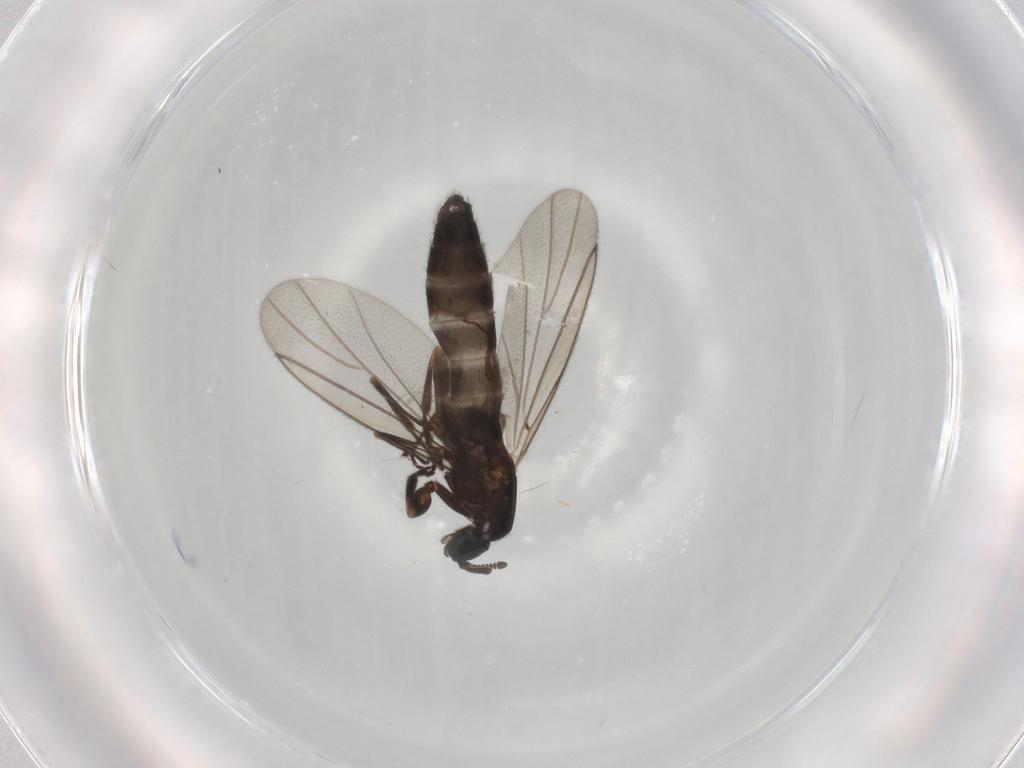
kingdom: Animalia
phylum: Arthropoda
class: Insecta
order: Diptera
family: Scatopsidae
